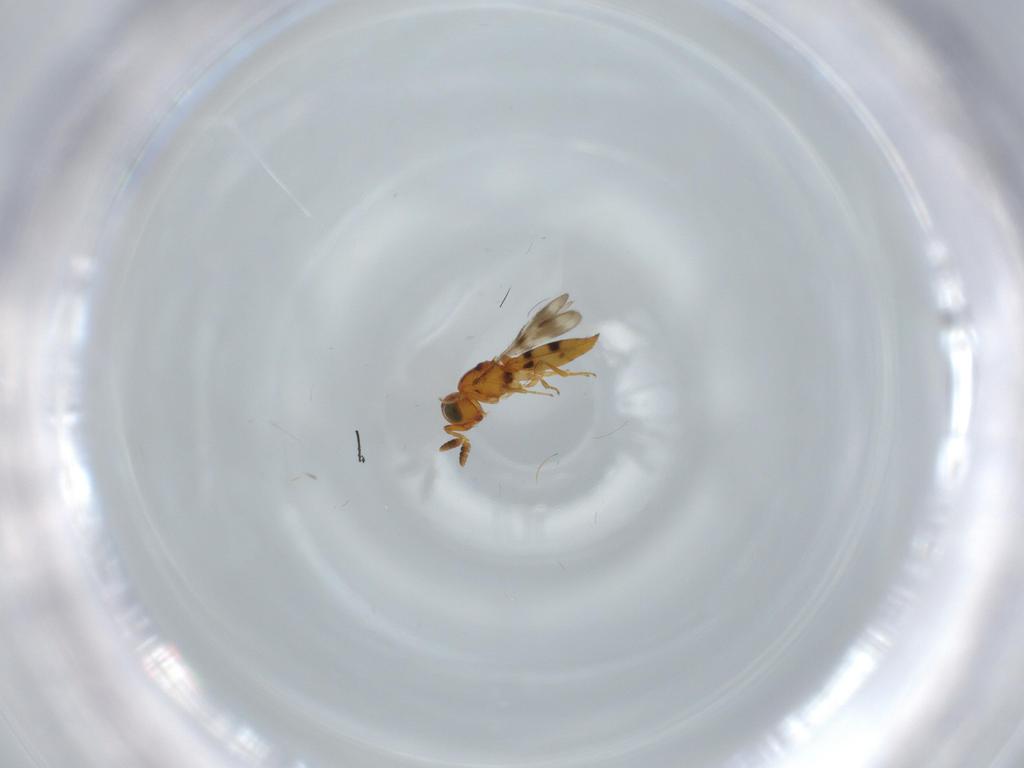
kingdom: Animalia
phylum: Arthropoda
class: Insecta
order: Hymenoptera
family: Scelionidae
